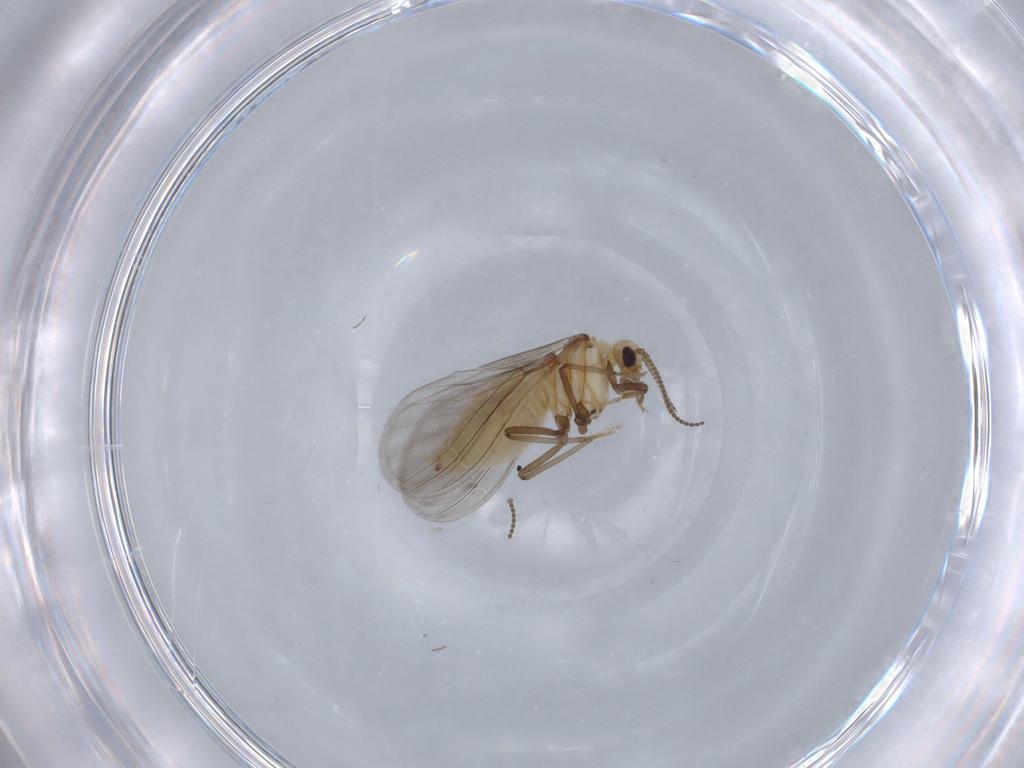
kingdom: Animalia
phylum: Arthropoda
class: Insecta
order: Neuroptera
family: Coniopterygidae
